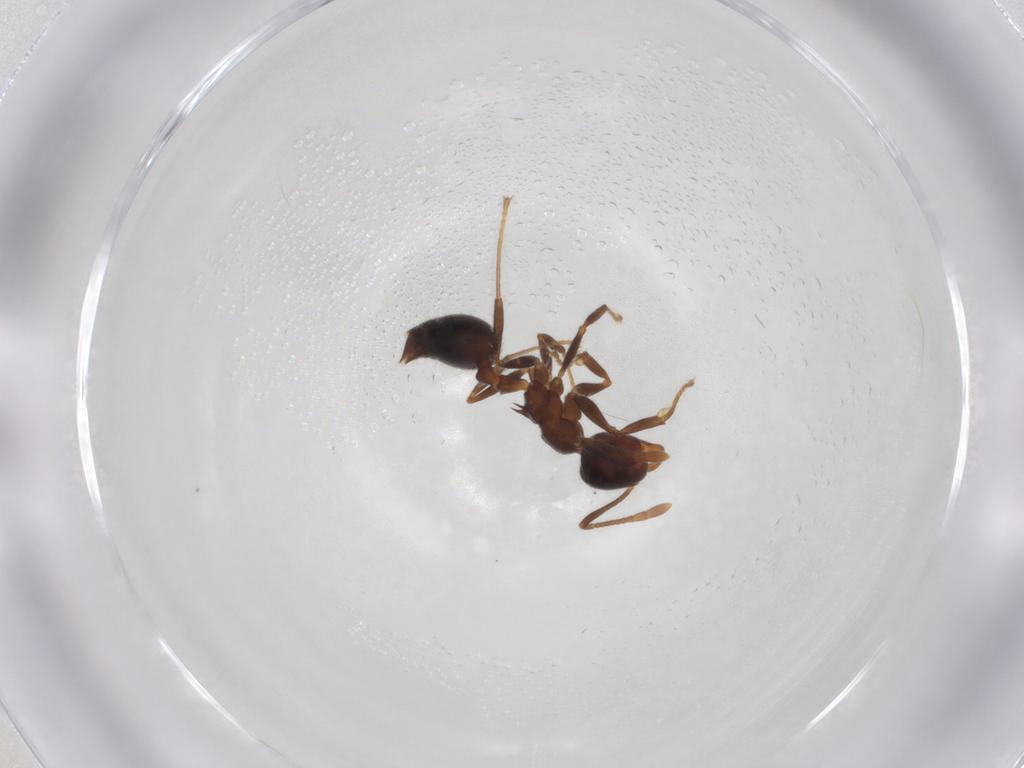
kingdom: Animalia
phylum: Arthropoda
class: Insecta
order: Hymenoptera
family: Formicidae
